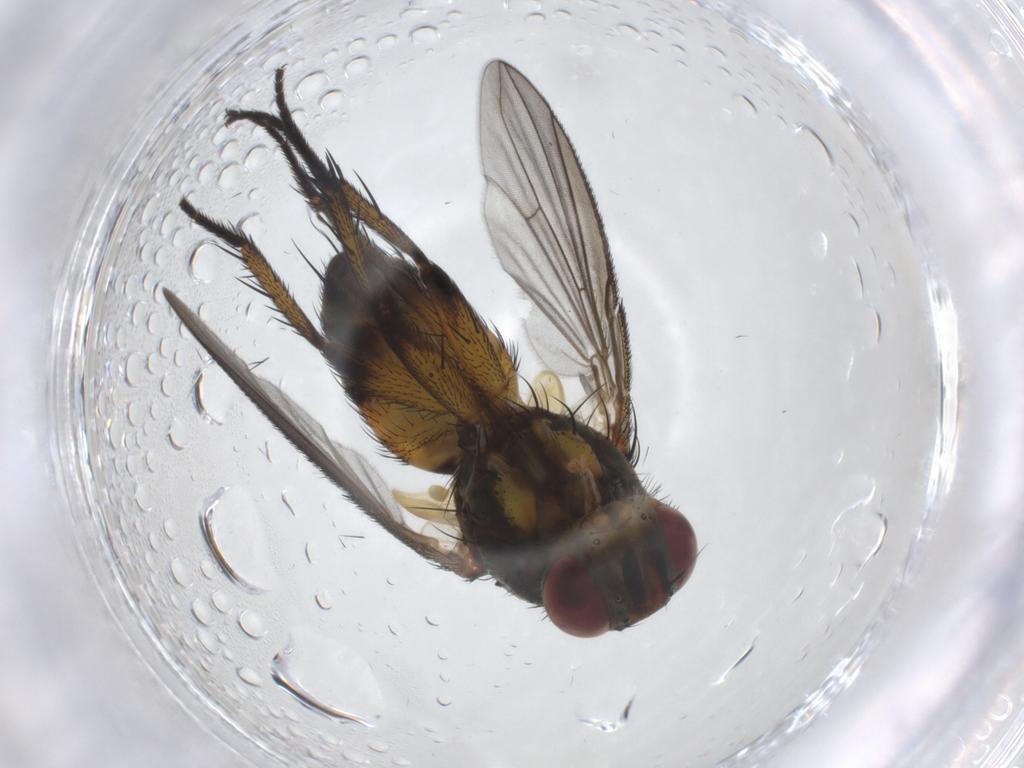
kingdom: Animalia
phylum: Arthropoda
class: Insecta
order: Diptera
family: Tachinidae
